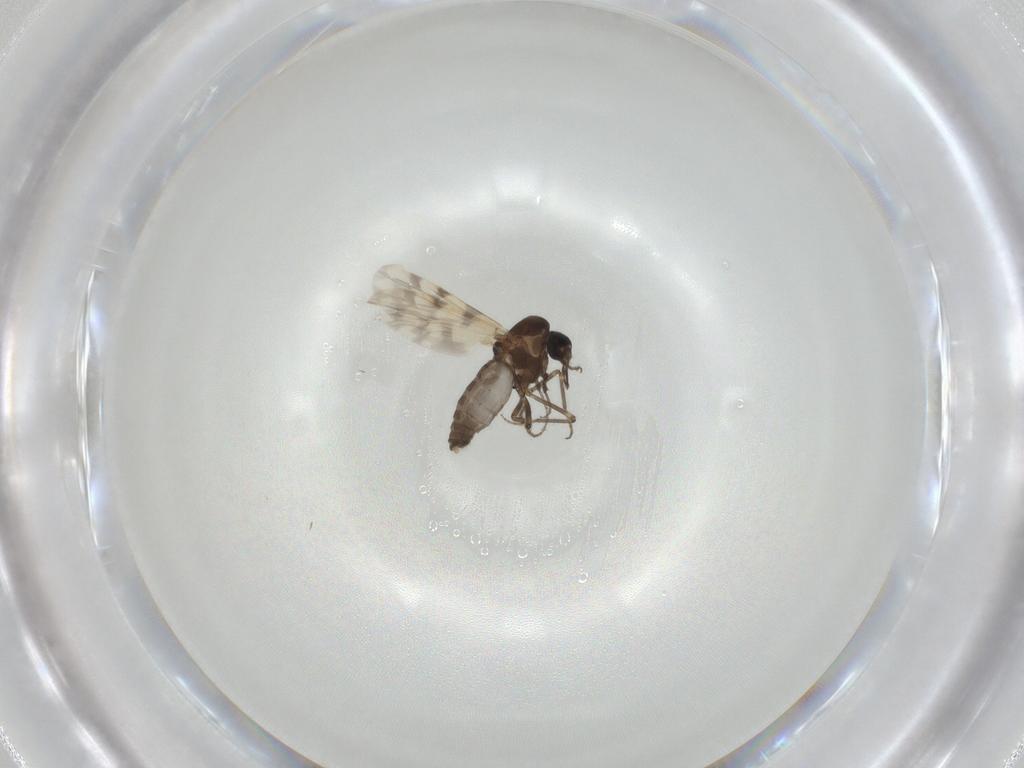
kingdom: Animalia
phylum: Arthropoda
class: Insecta
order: Diptera
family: Ceratopogonidae
